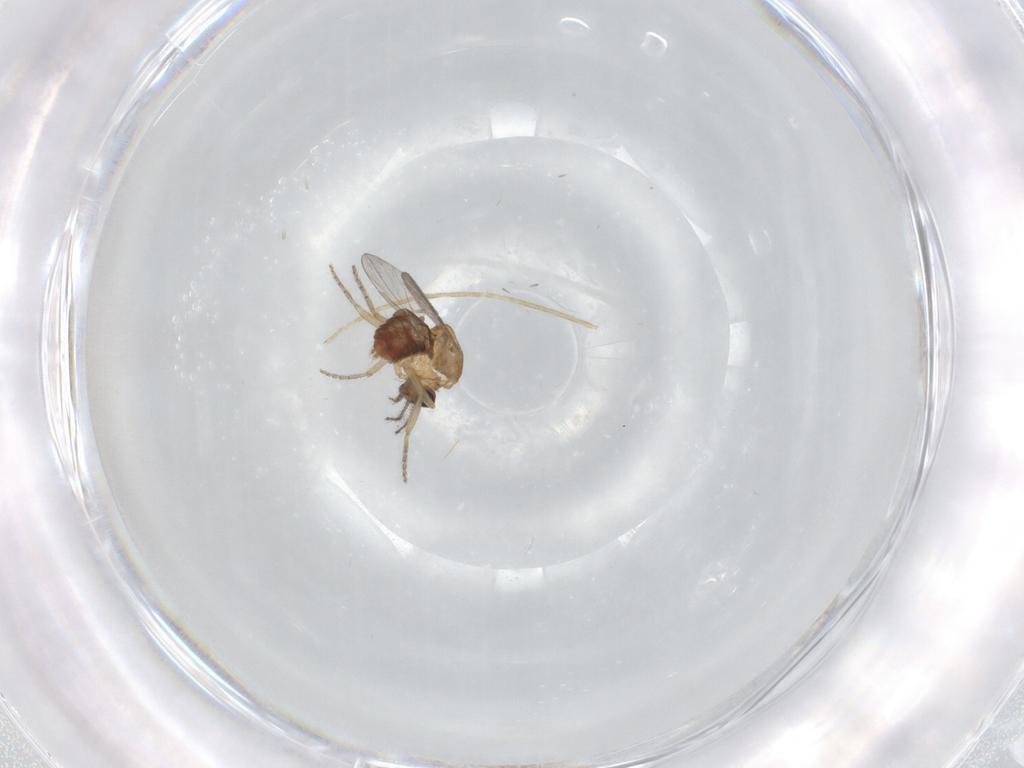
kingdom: Animalia
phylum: Arthropoda
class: Insecta
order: Diptera
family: Chironomidae
